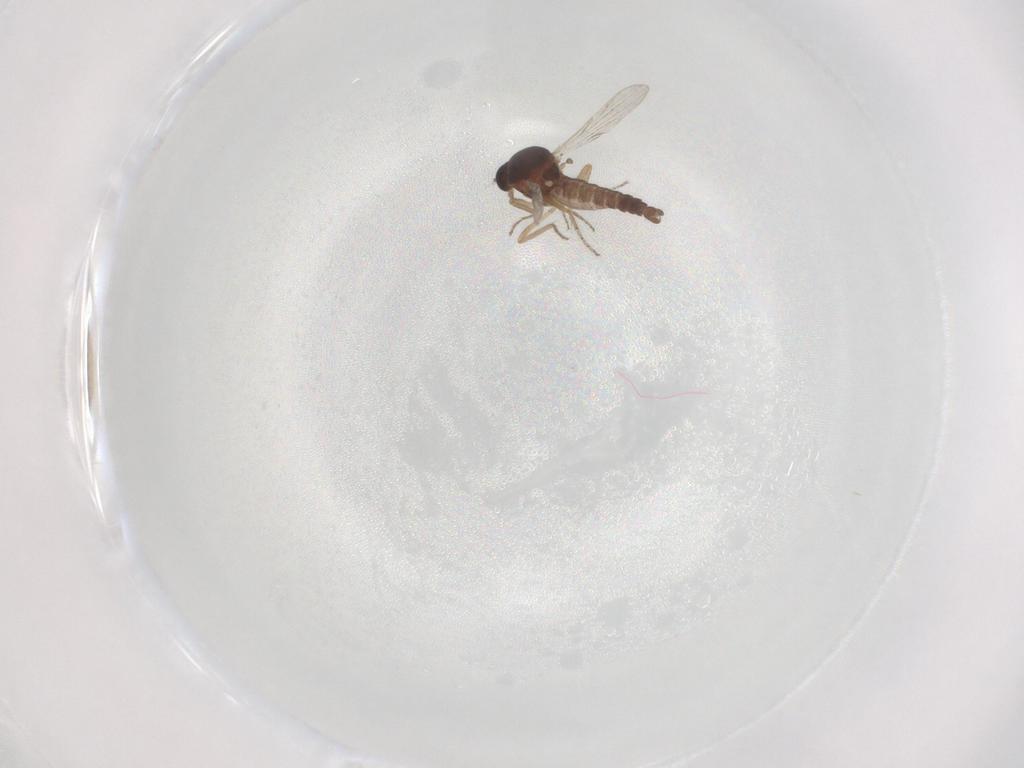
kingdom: Animalia
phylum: Arthropoda
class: Insecta
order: Diptera
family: Ceratopogonidae
